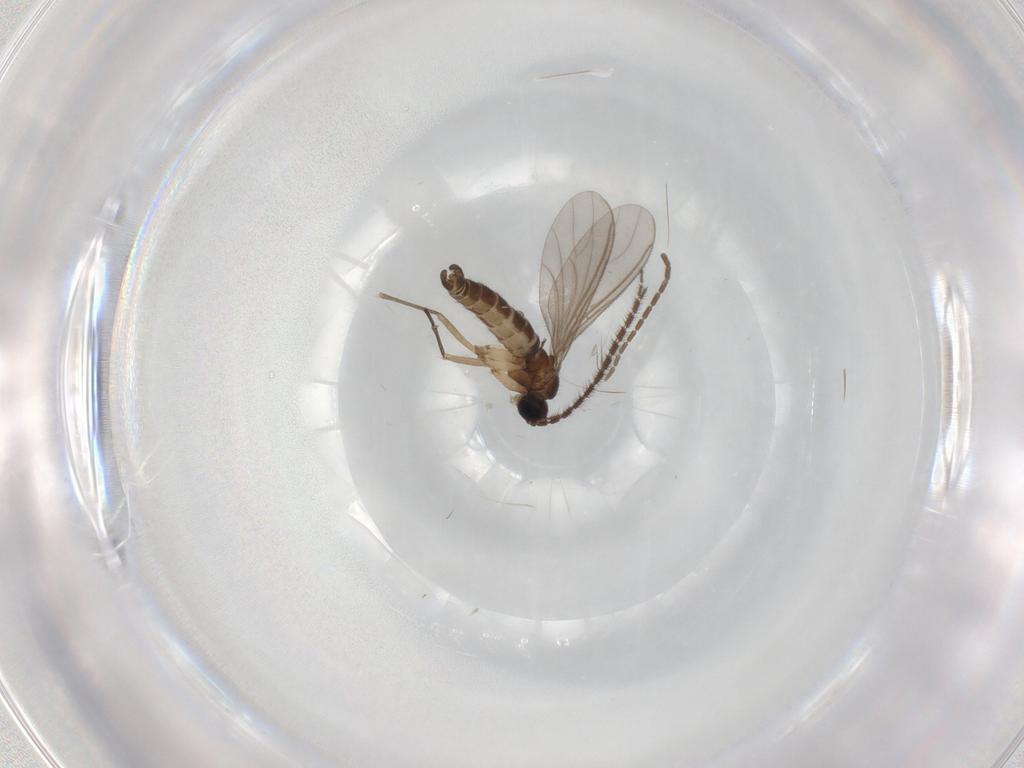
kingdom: Animalia
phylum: Arthropoda
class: Insecta
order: Diptera
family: Sciaridae
